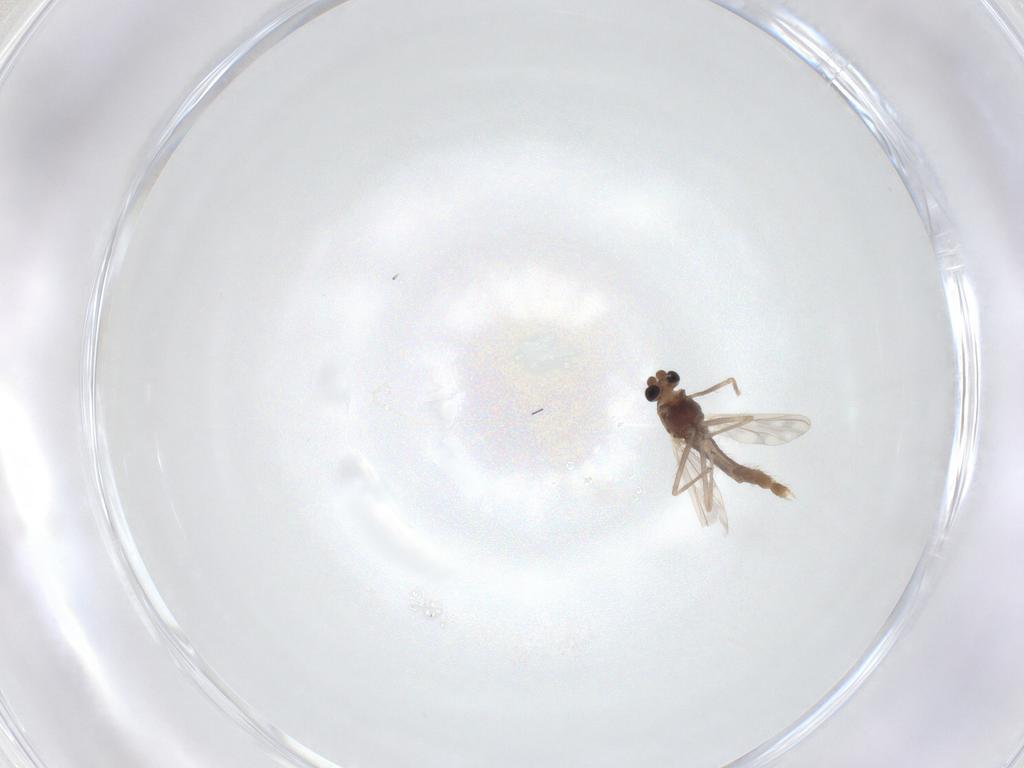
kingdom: Animalia
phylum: Arthropoda
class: Insecta
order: Diptera
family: Chironomidae
